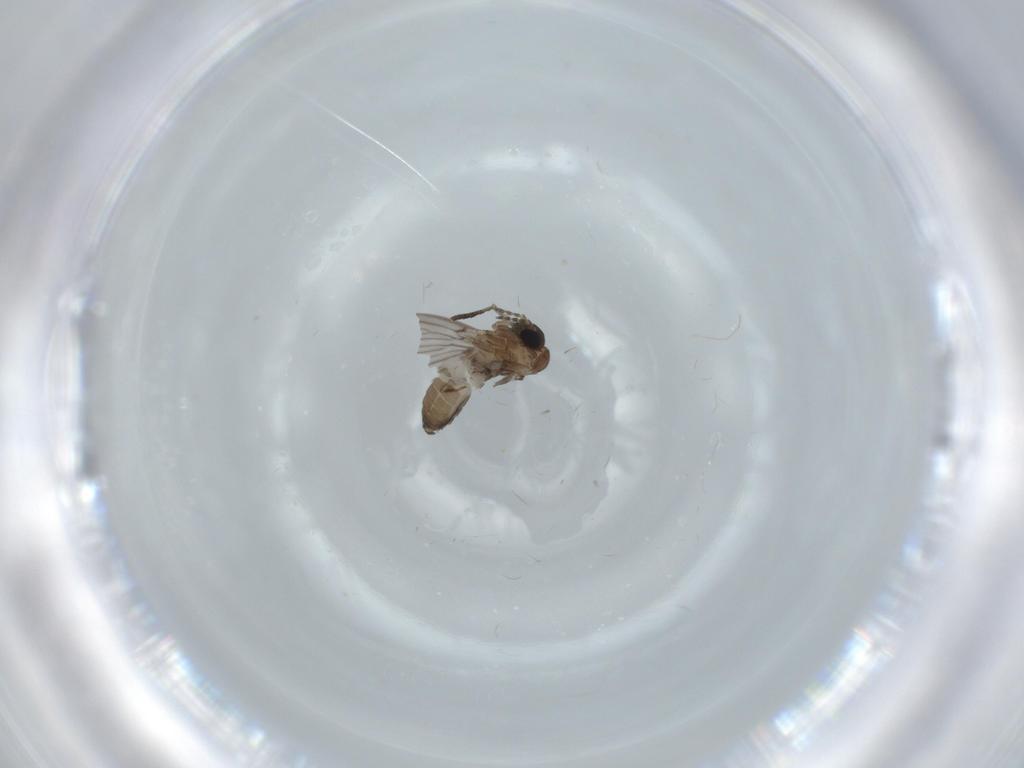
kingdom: Animalia
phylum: Arthropoda
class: Insecta
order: Diptera
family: Psychodidae
